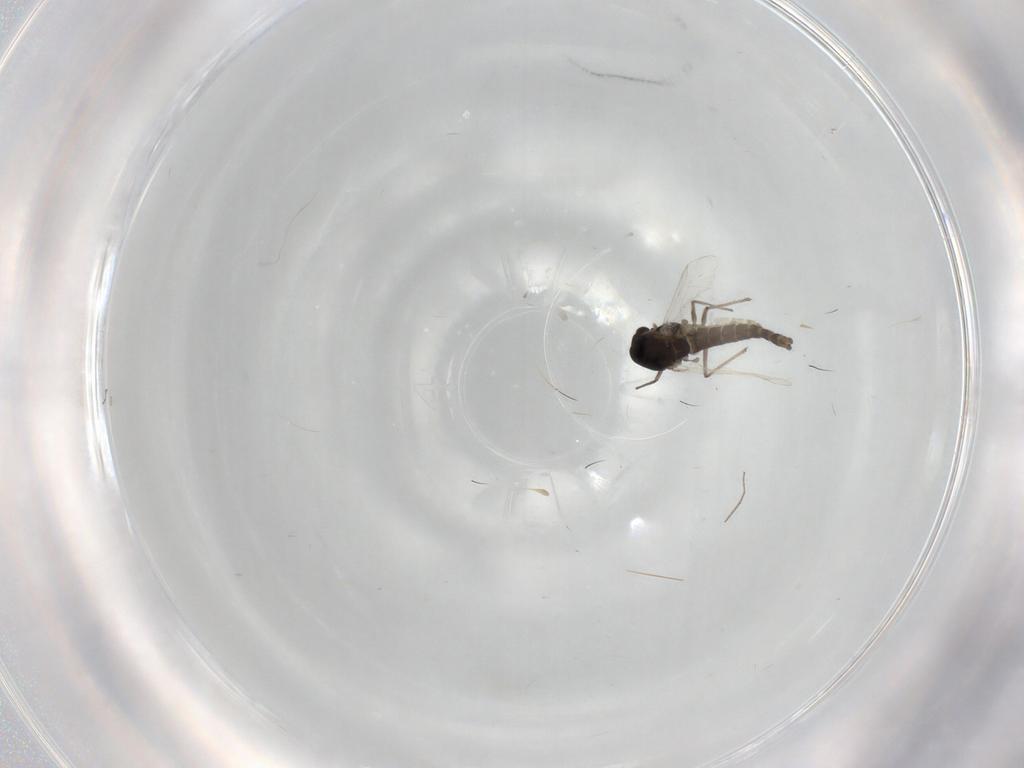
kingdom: Animalia
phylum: Arthropoda
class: Insecta
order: Diptera
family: Chironomidae
